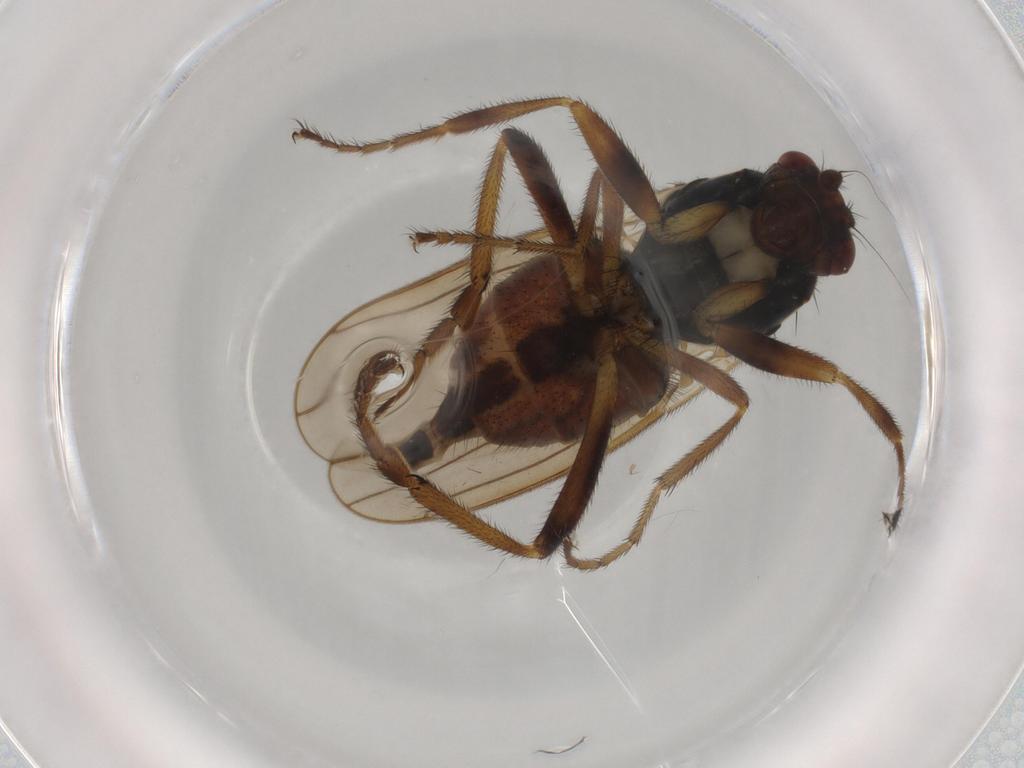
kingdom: Animalia
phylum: Arthropoda
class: Insecta
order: Diptera
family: Sphaeroceridae
